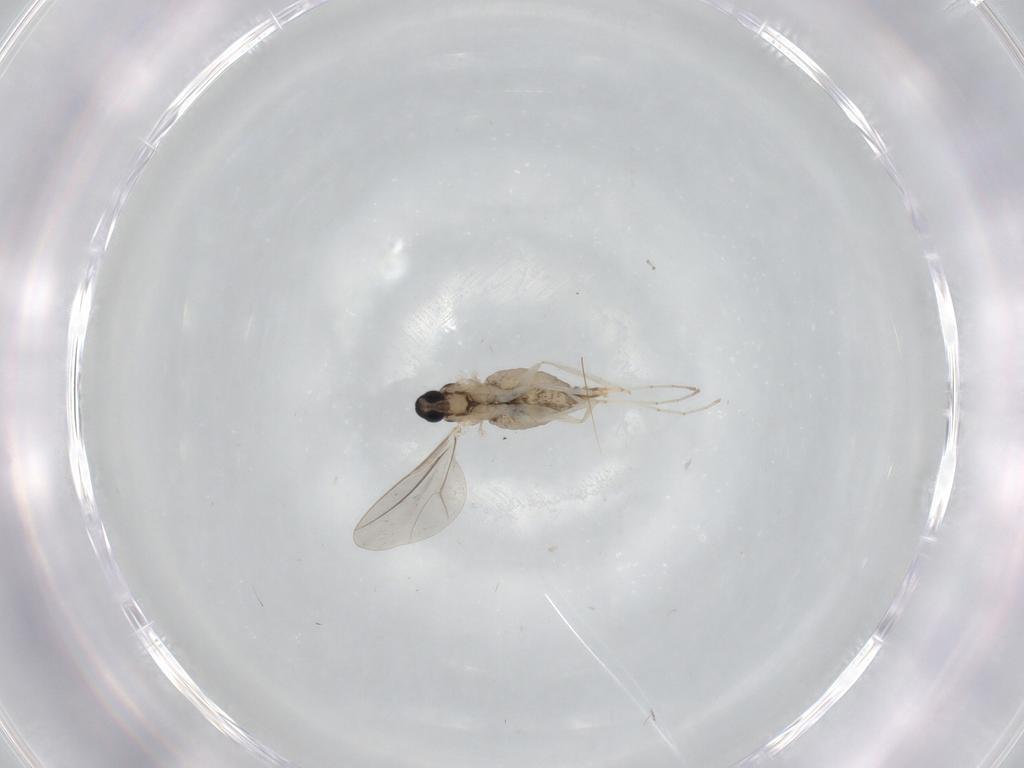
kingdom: Animalia
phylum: Arthropoda
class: Insecta
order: Diptera
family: Cecidomyiidae
